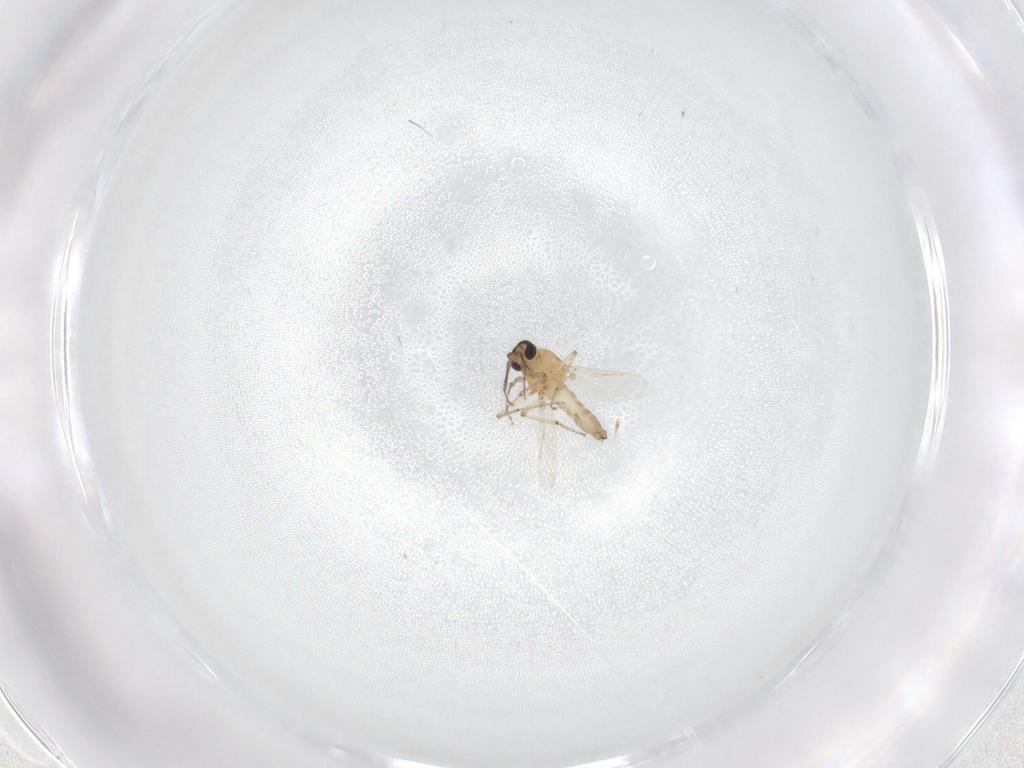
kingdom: Animalia
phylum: Arthropoda
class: Insecta
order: Diptera
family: Ceratopogonidae
